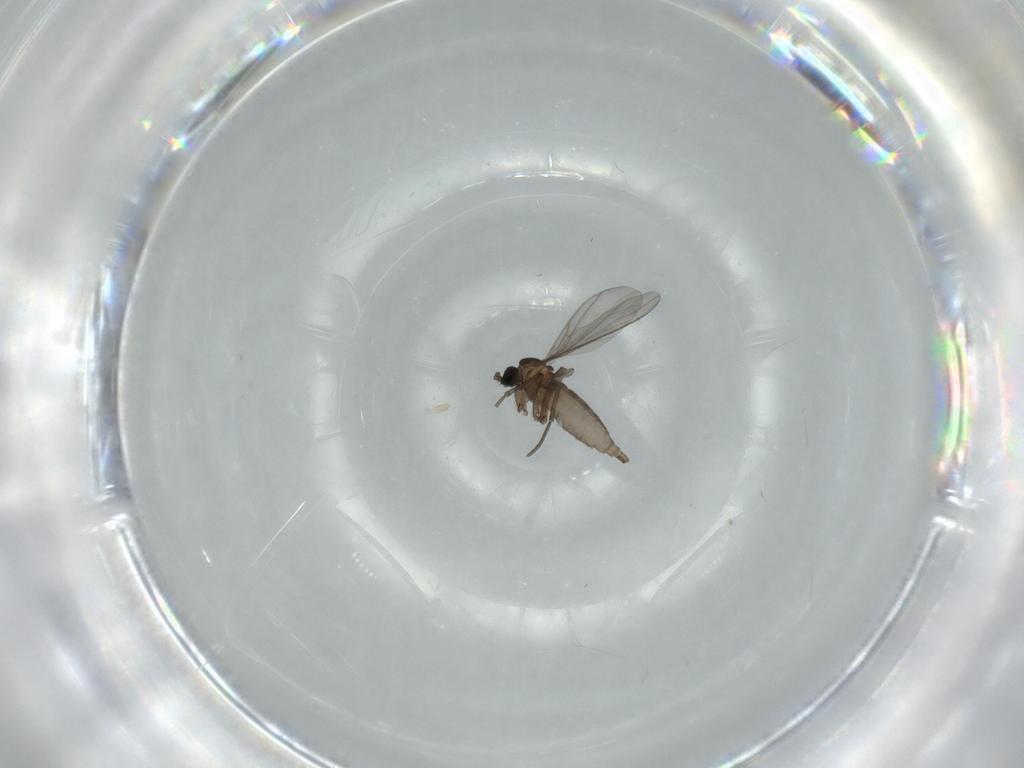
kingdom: Animalia
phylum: Arthropoda
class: Insecta
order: Diptera
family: Sciaridae
